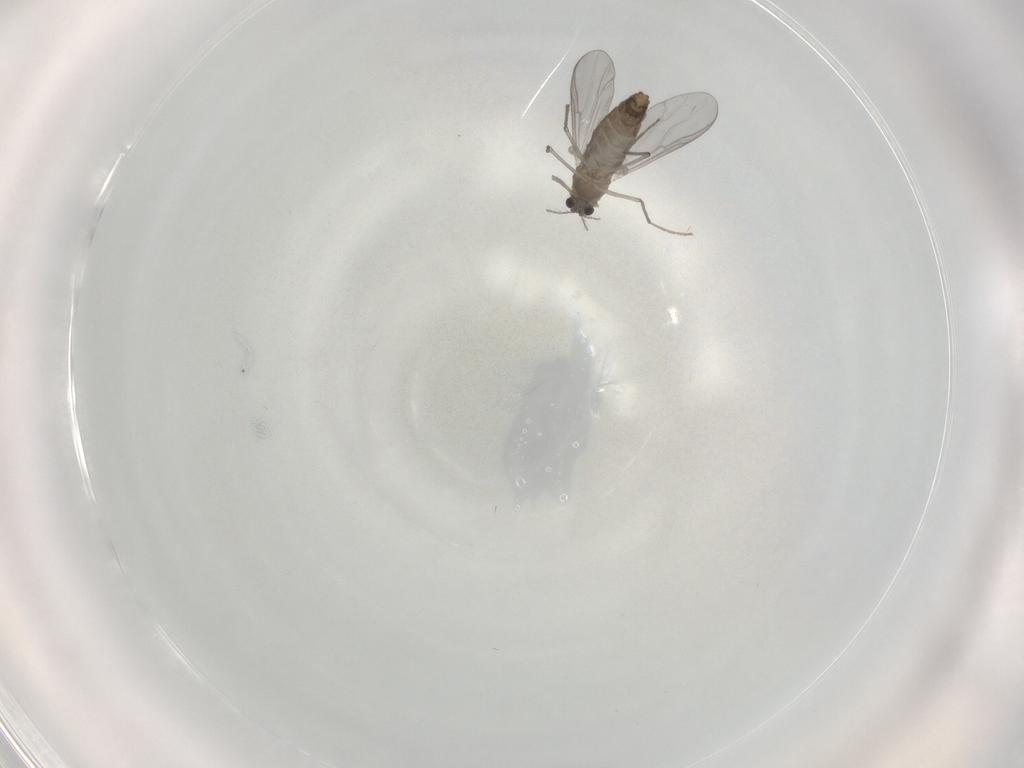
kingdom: Animalia
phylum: Arthropoda
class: Insecta
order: Diptera
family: Chironomidae
